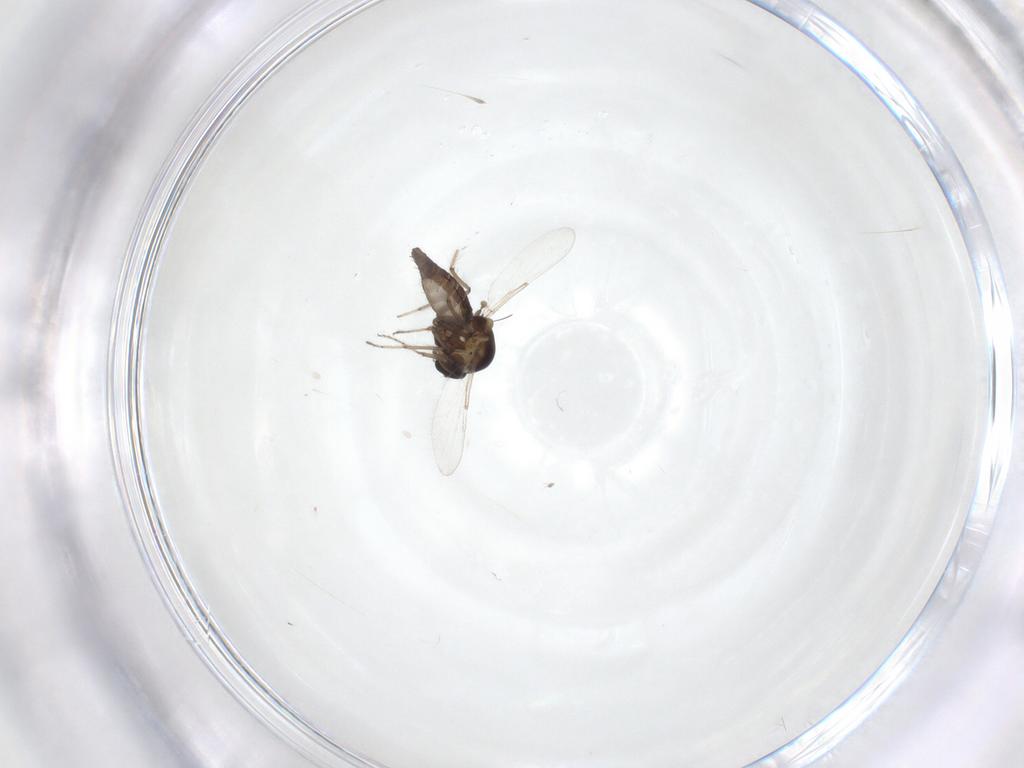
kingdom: Animalia
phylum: Arthropoda
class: Insecta
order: Diptera
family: Ceratopogonidae
